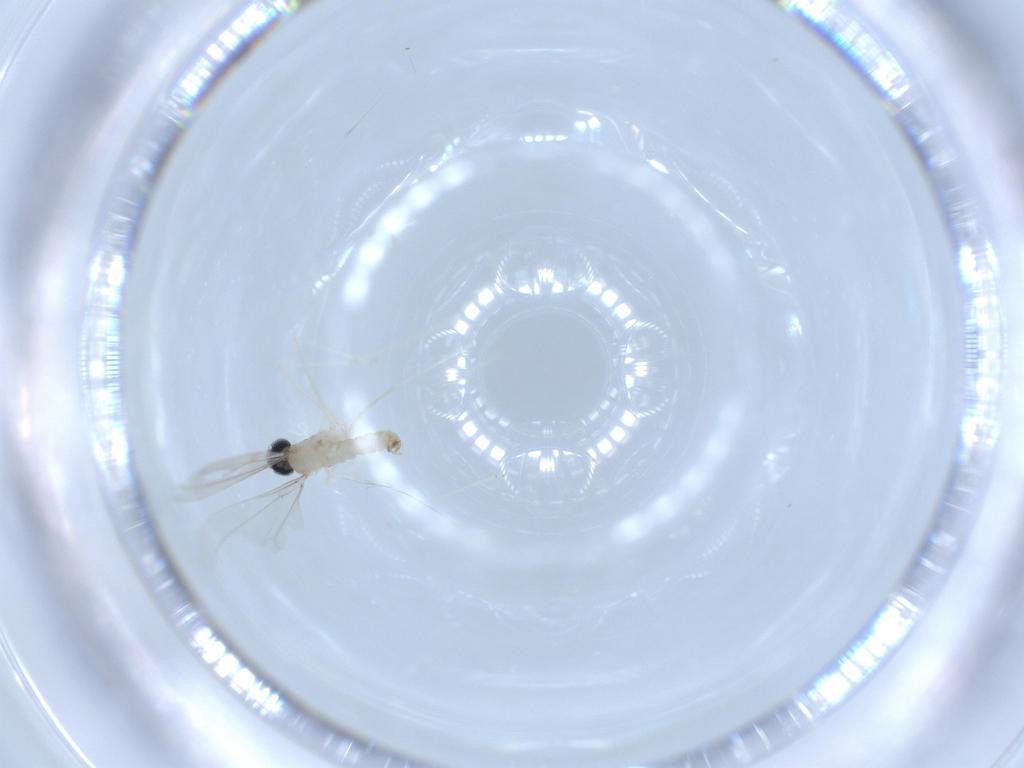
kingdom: Animalia
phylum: Arthropoda
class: Insecta
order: Diptera
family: Cecidomyiidae
